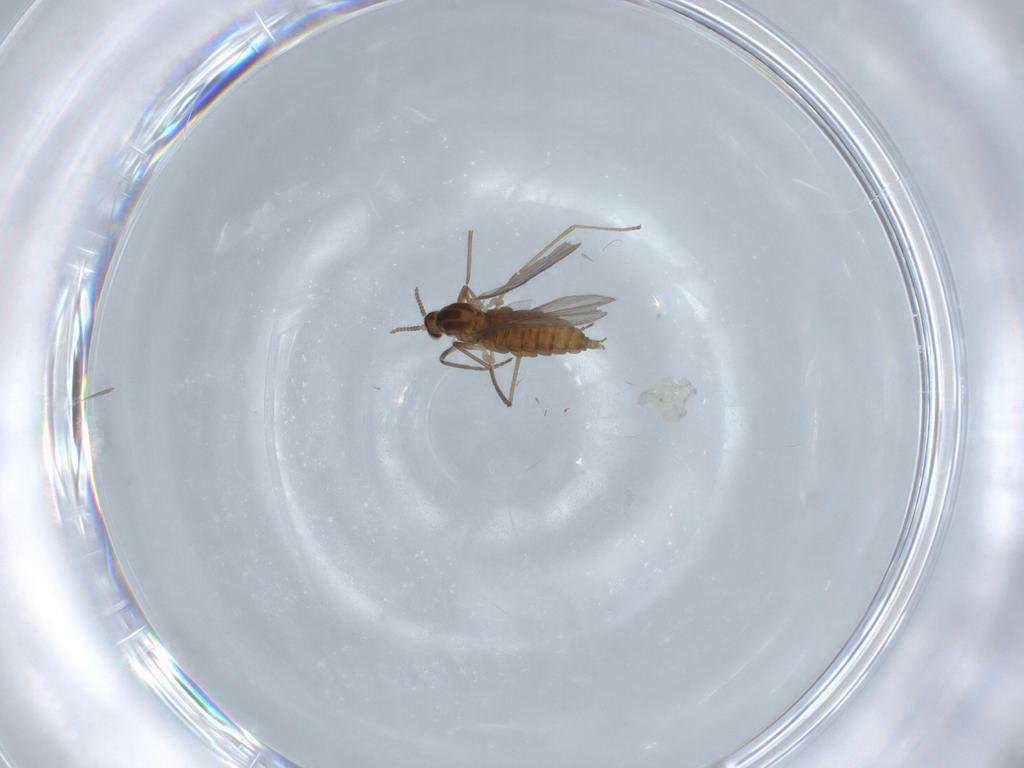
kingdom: Animalia
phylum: Arthropoda
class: Insecta
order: Diptera
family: Cecidomyiidae
